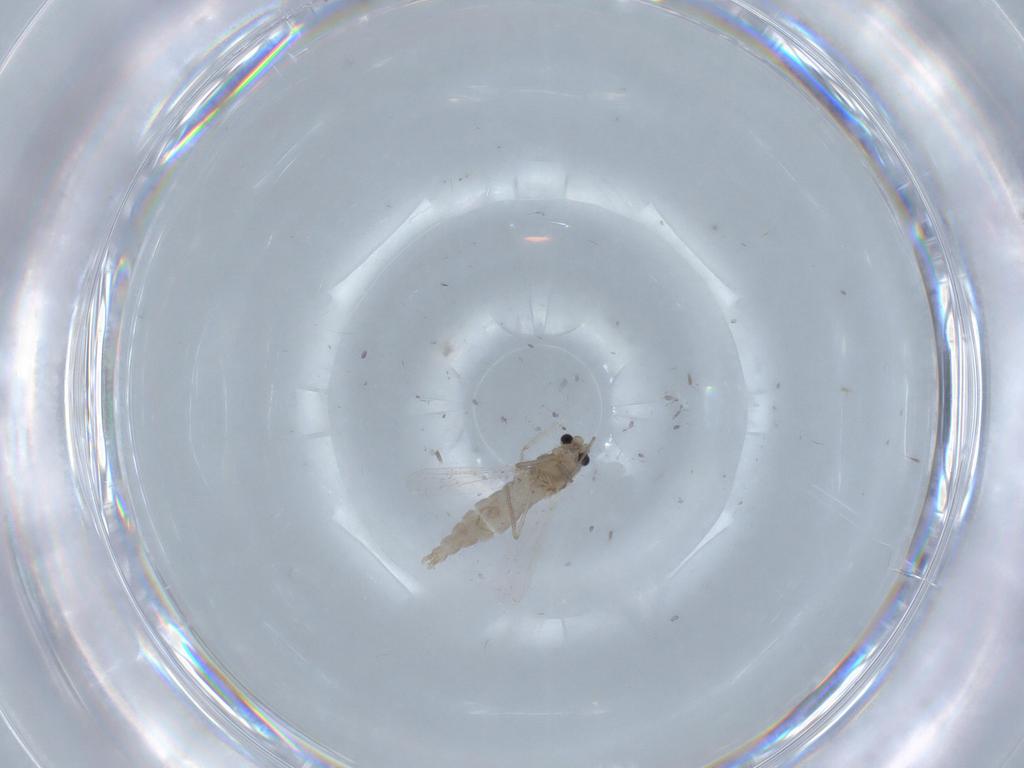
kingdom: Animalia
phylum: Arthropoda
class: Insecta
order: Diptera
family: Chironomidae
